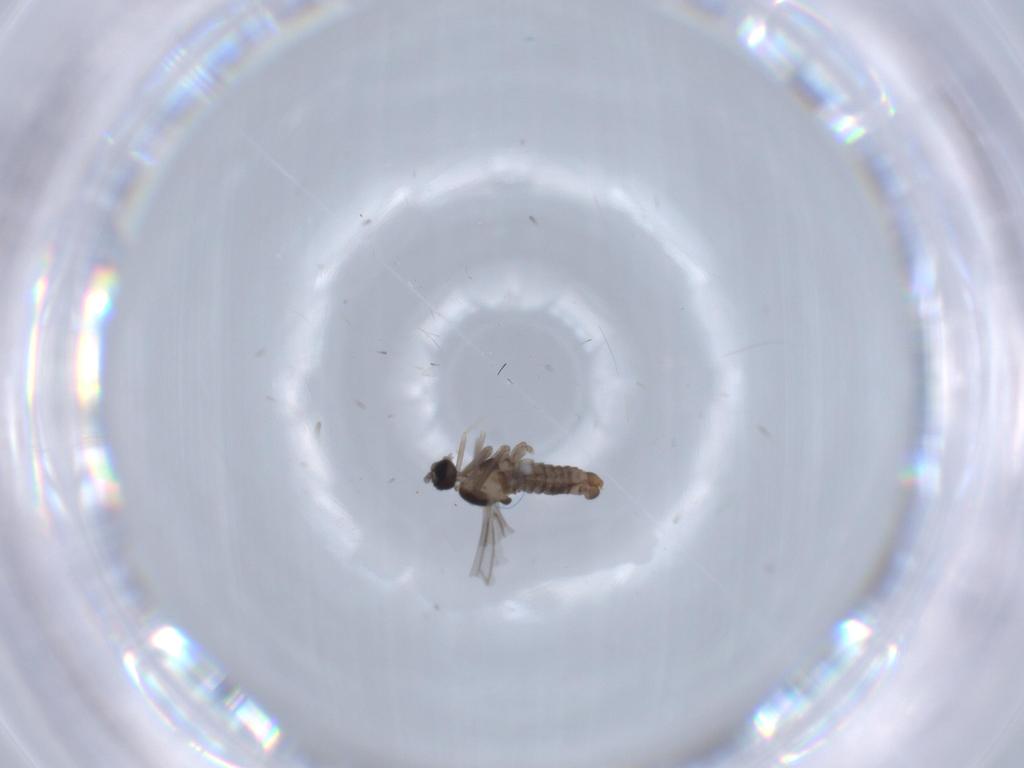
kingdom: Animalia
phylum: Arthropoda
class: Insecta
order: Diptera
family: Cecidomyiidae
